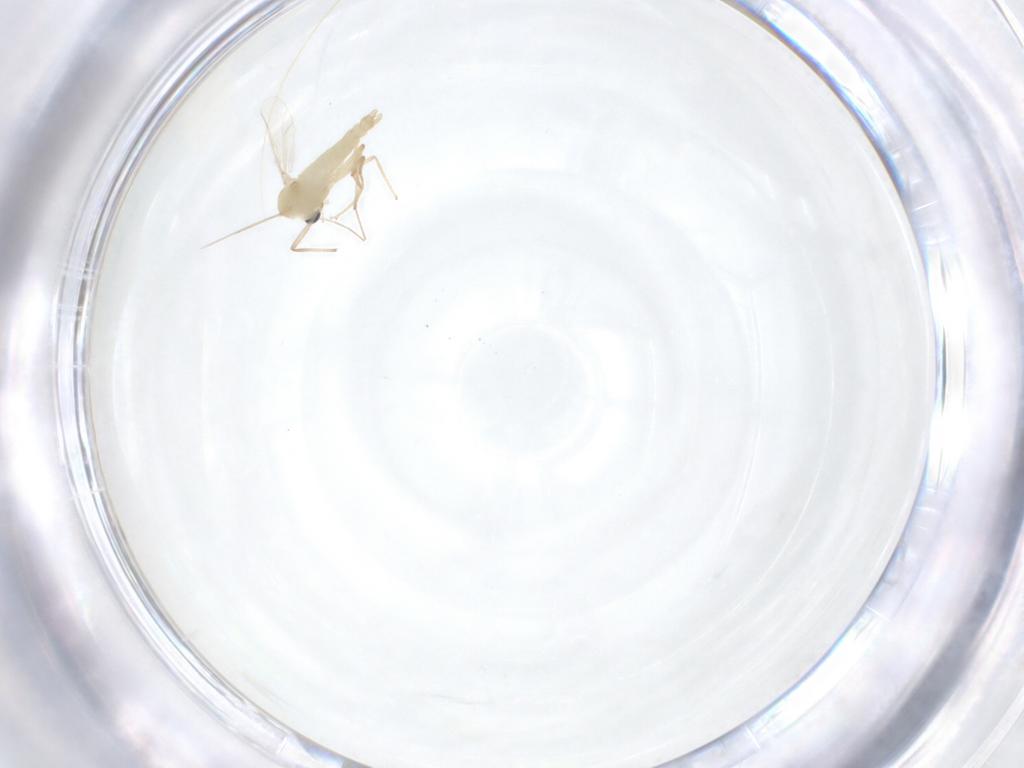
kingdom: Animalia
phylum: Arthropoda
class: Insecta
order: Diptera
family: Chironomidae
